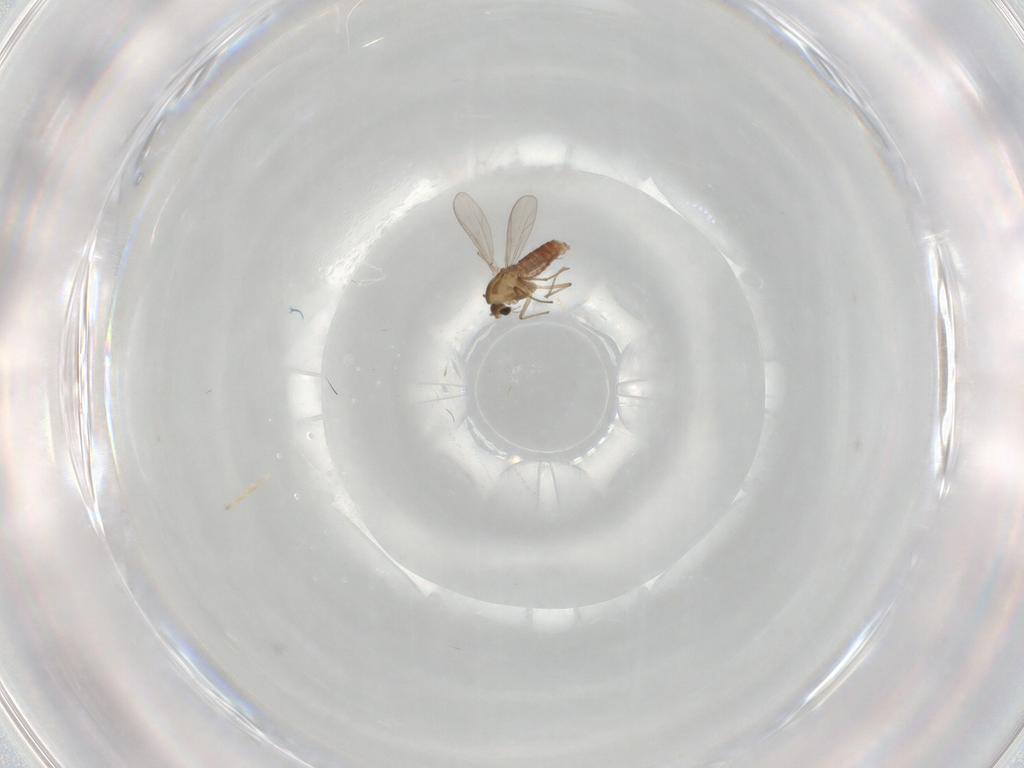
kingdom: Animalia
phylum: Arthropoda
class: Insecta
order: Diptera
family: Chironomidae
